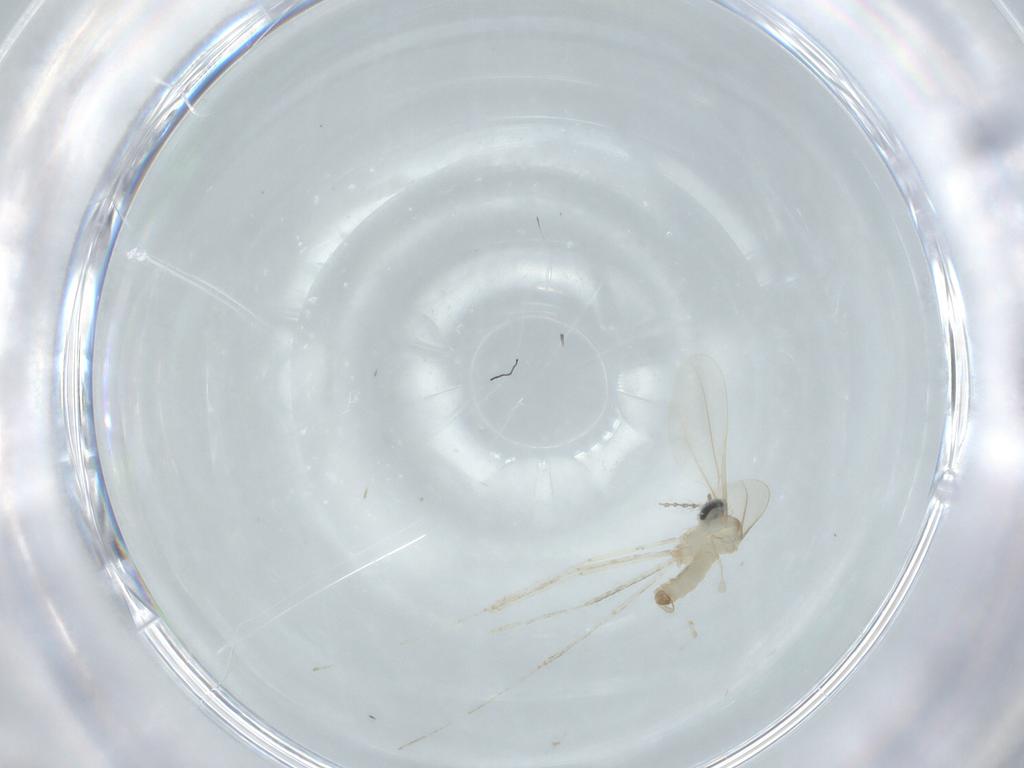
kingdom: Animalia
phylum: Arthropoda
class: Insecta
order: Diptera
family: Cecidomyiidae
